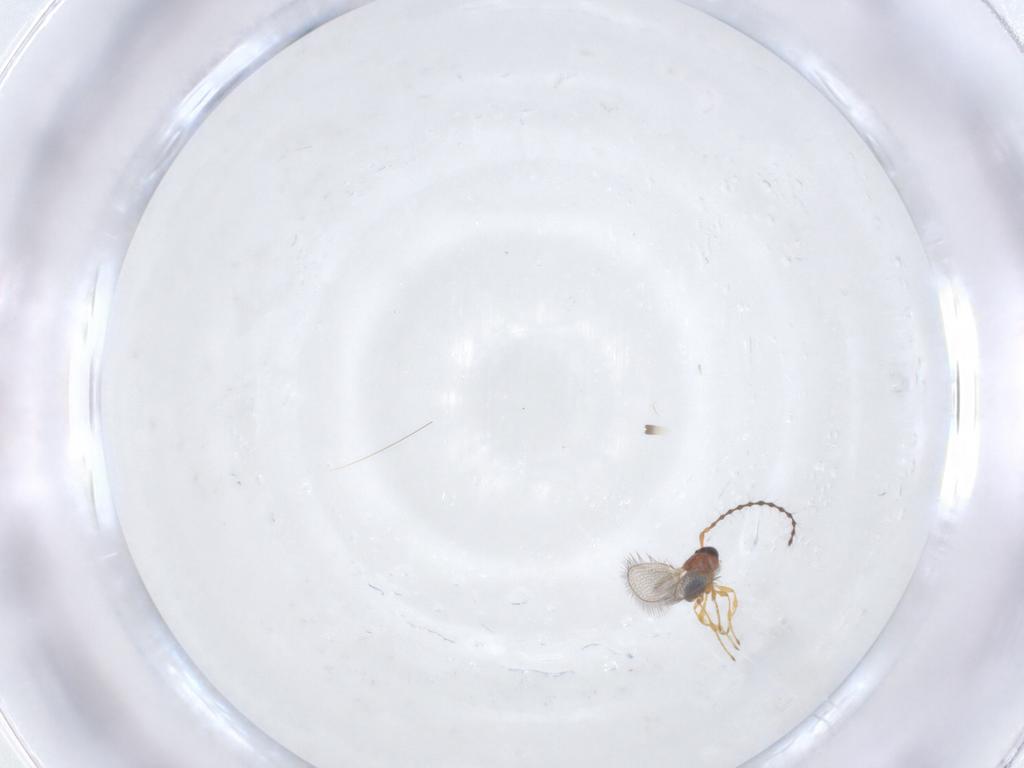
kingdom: Animalia
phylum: Arthropoda
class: Insecta
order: Hymenoptera
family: Diapriidae
